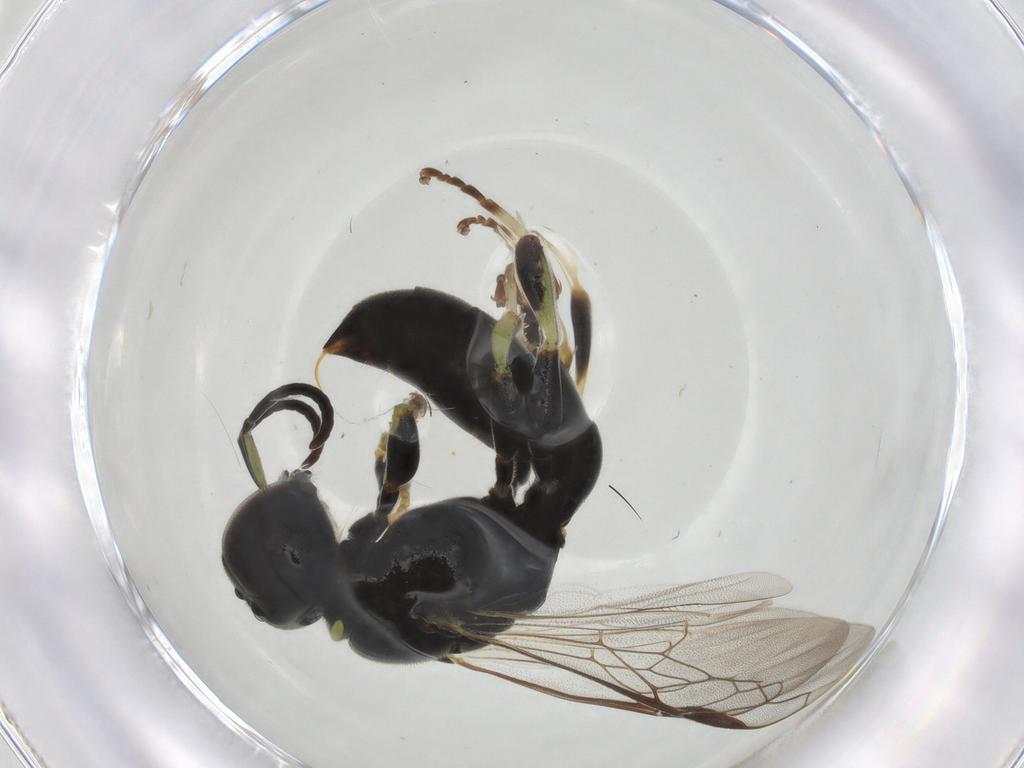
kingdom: Animalia
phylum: Arthropoda
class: Insecta
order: Hymenoptera
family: Crabronidae
